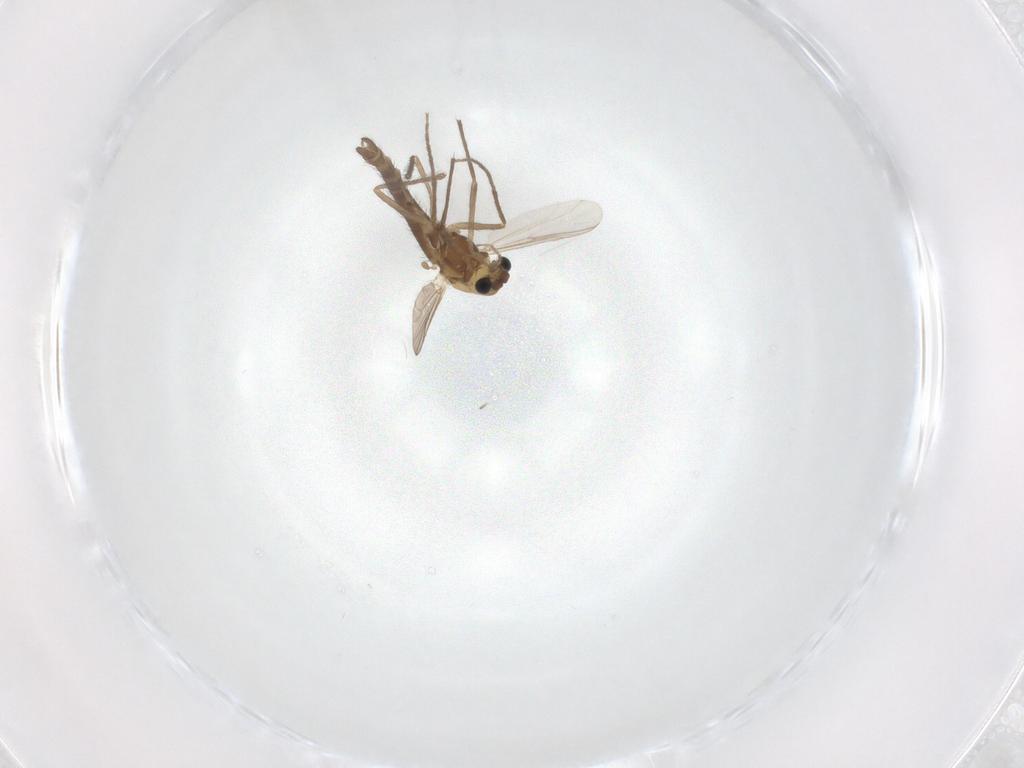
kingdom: Animalia
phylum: Arthropoda
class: Insecta
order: Diptera
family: Chironomidae
